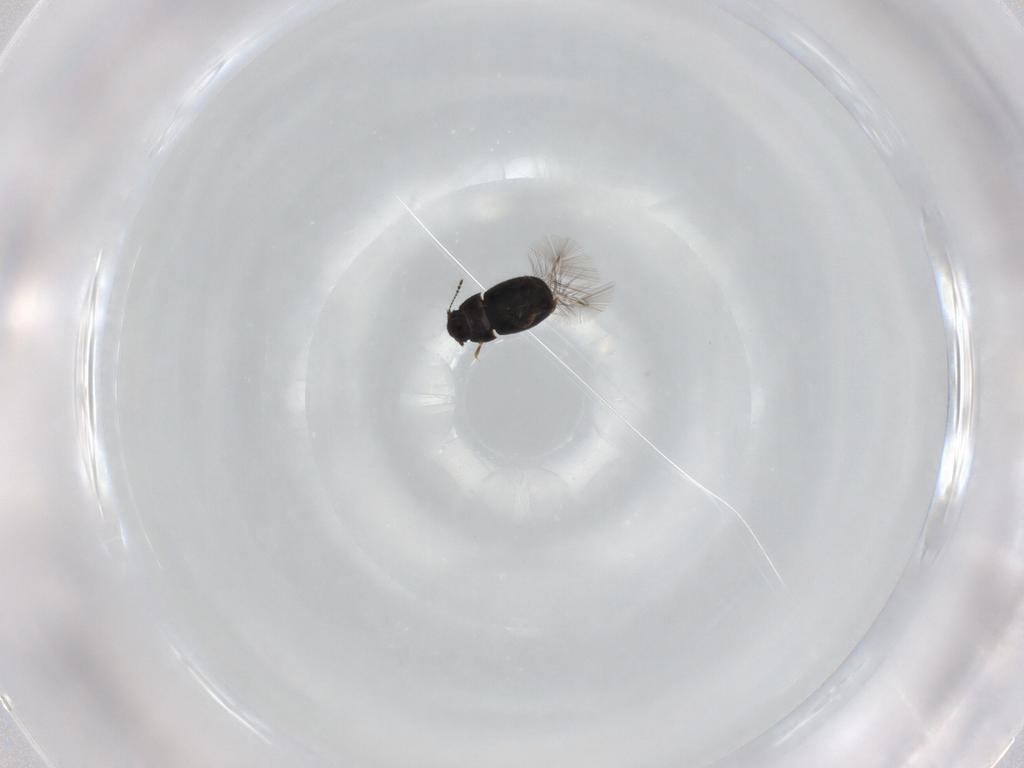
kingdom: Animalia
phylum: Arthropoda
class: Insecta
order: Coleoptera
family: Ptiliidae
